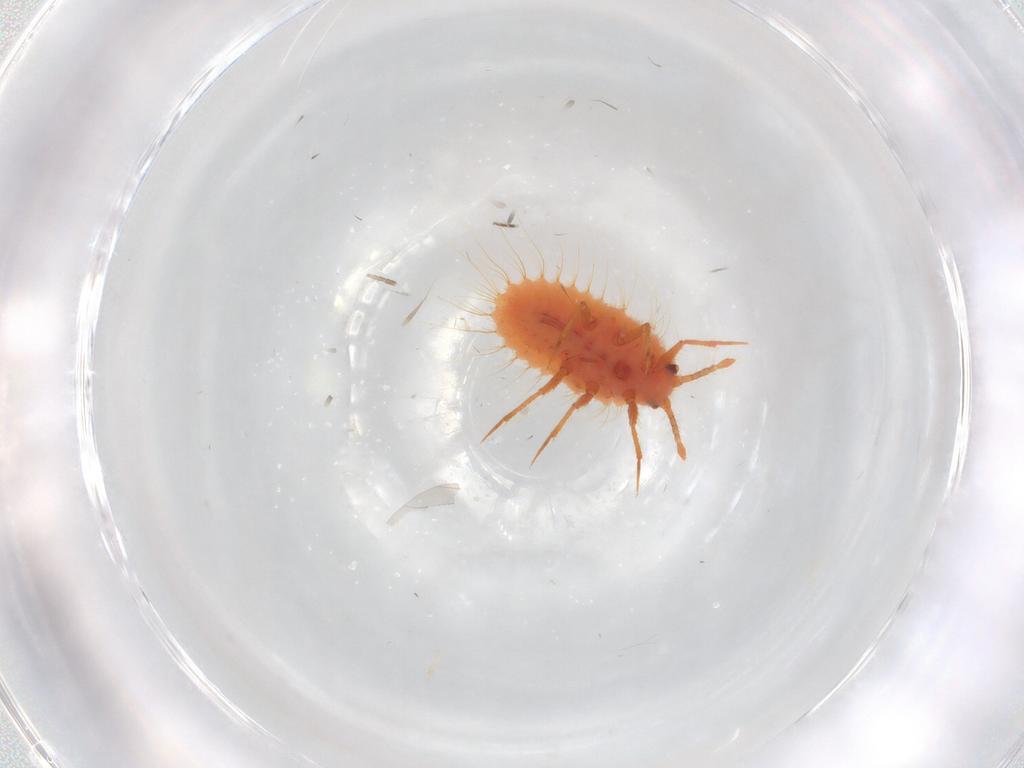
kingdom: Animalia
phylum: Arthropoda
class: Insecta
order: Hemiptera
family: Coccoidea_incertae_sedis
